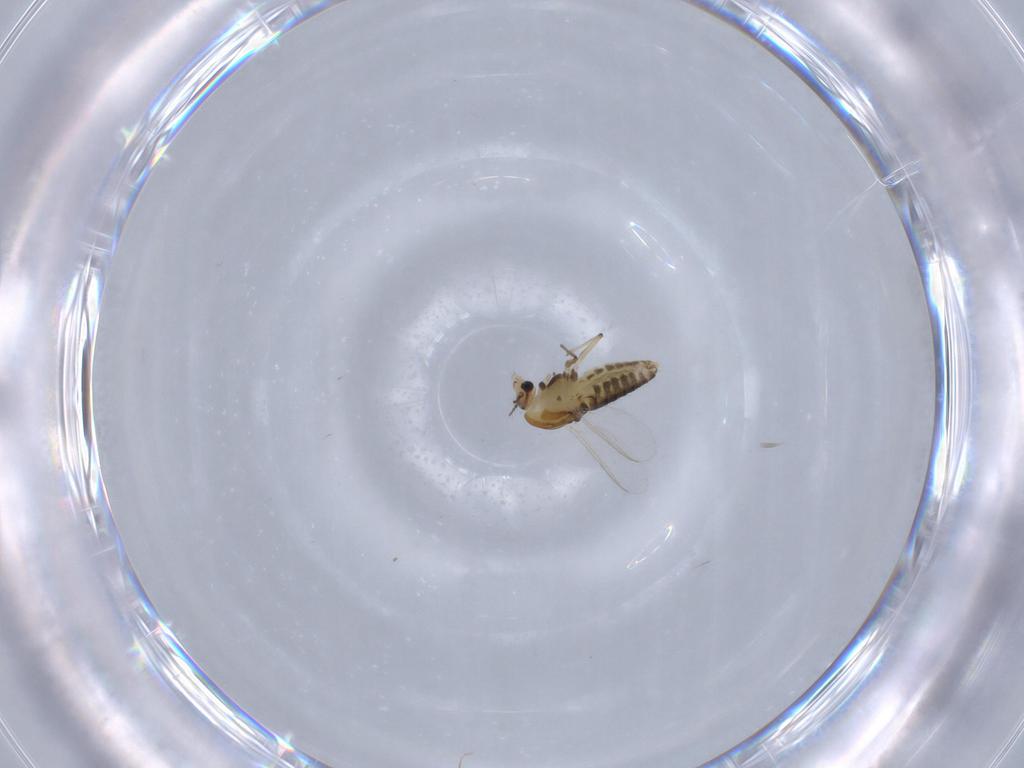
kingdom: Animalia
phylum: Arthropoda
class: Insecta
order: Diptera
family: Chironomidae
